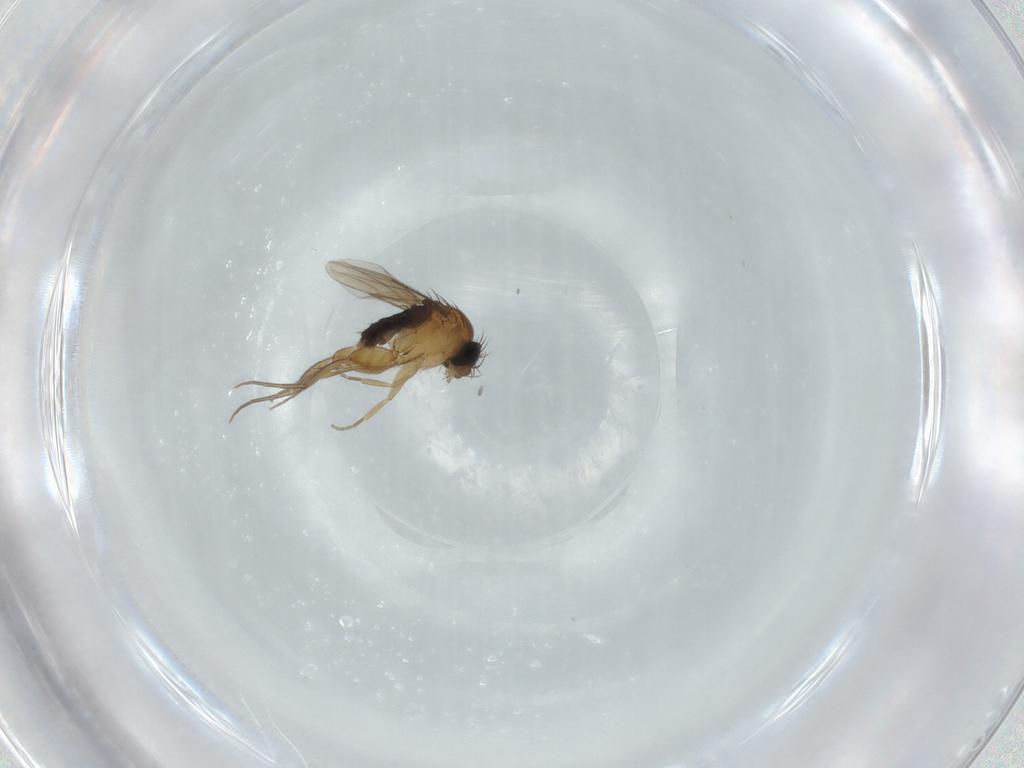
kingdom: Animalia
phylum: Arthropoda
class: Insecta
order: Diptera
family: Phoridae
